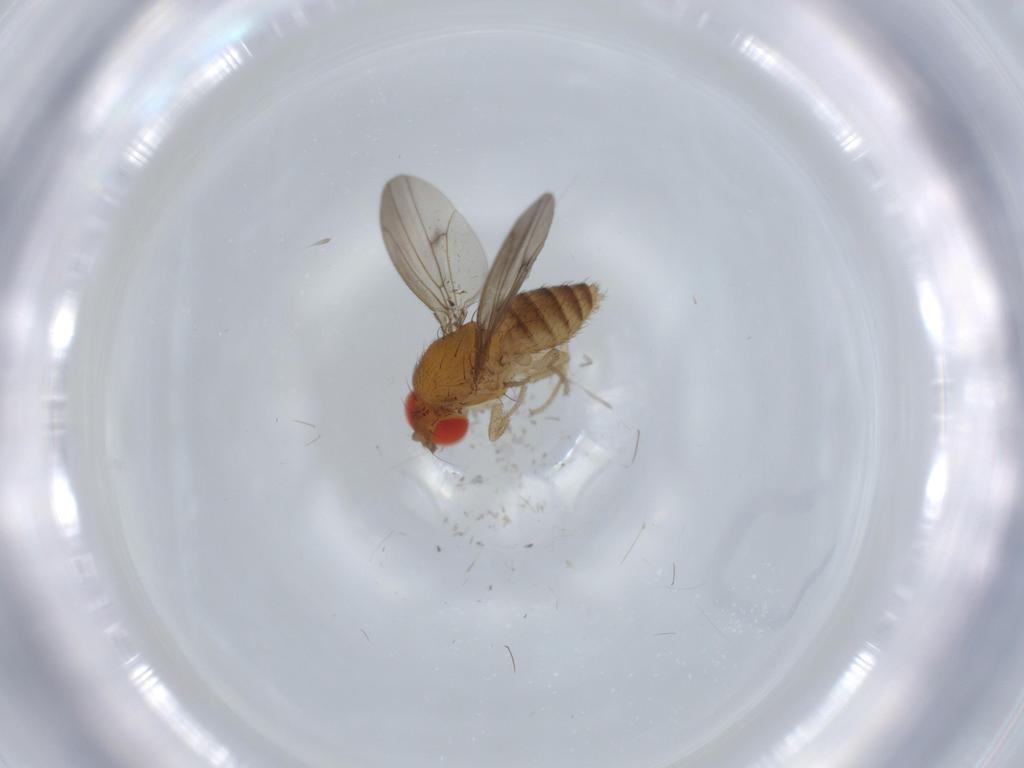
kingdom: Animalia
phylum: Arthropoda
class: Insecta
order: Diptera
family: Drosophilidae
